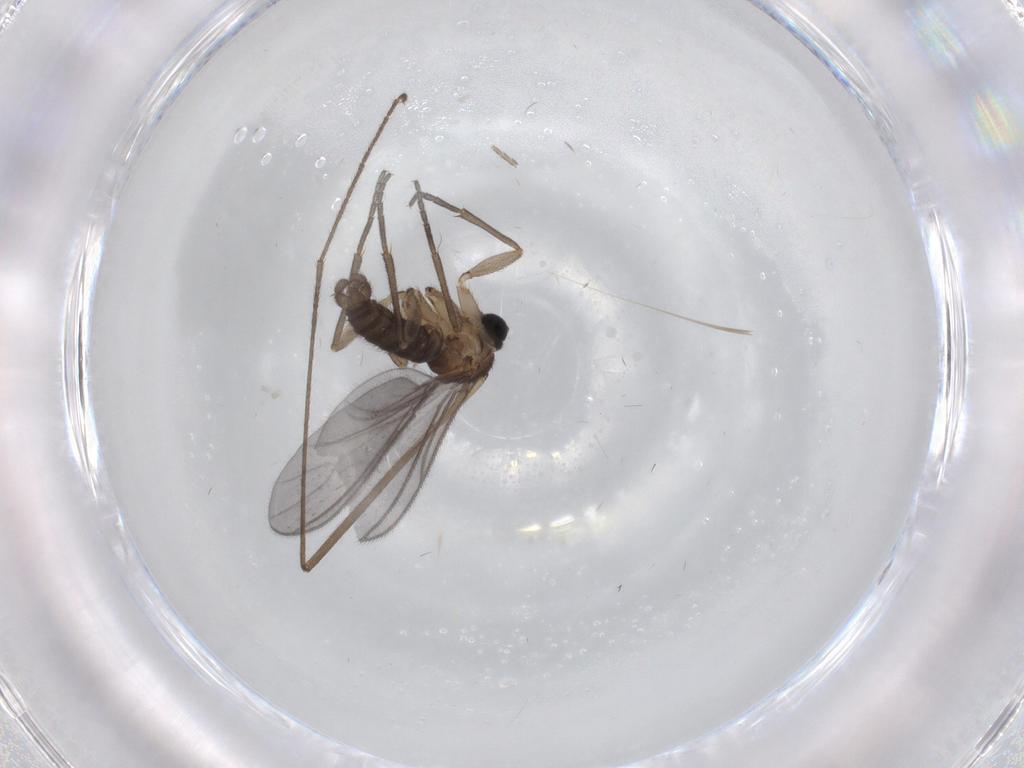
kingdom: Animalia
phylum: Arthropoda
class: Insecta
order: Diptera
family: Sciaridae
